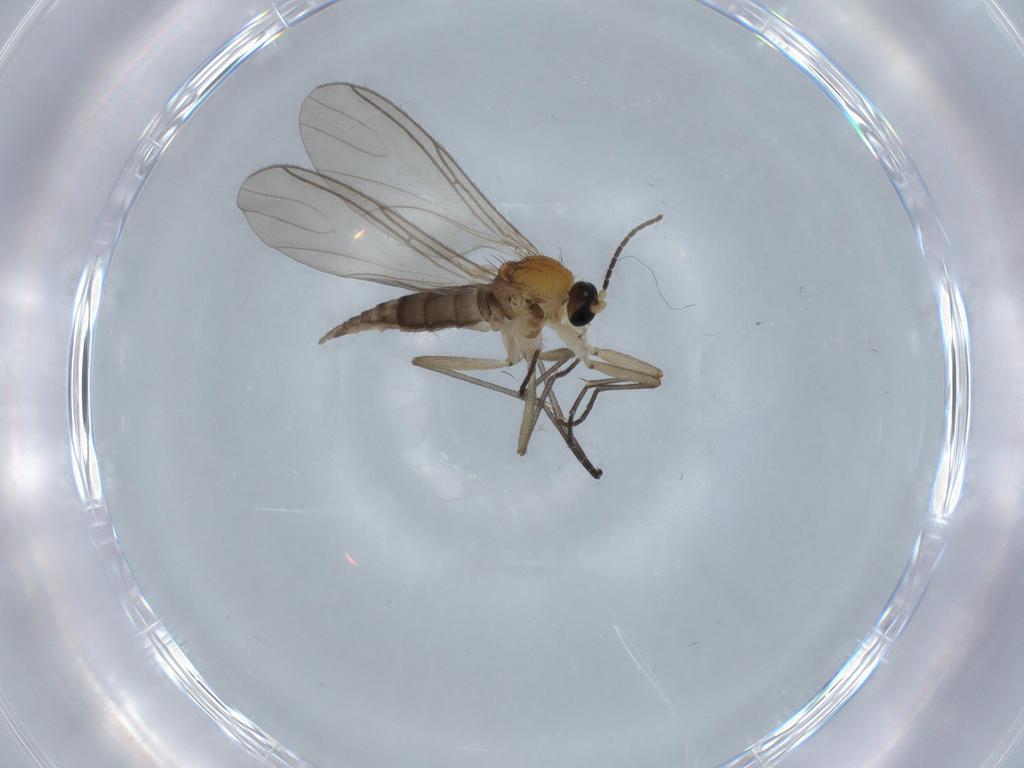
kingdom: Animalia
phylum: Arthropoda
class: Insecta
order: Diptera
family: Sciaridae
